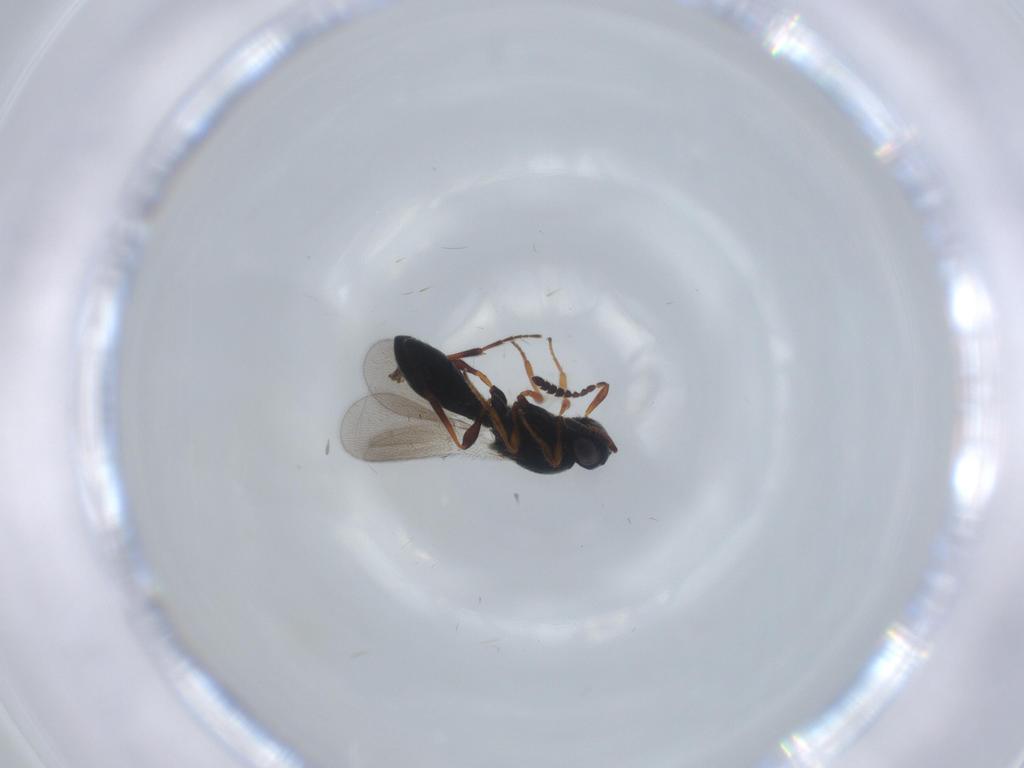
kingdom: Animalia
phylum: Arthropoda
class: Insecta
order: Hymenoptera
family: Platygastridae
